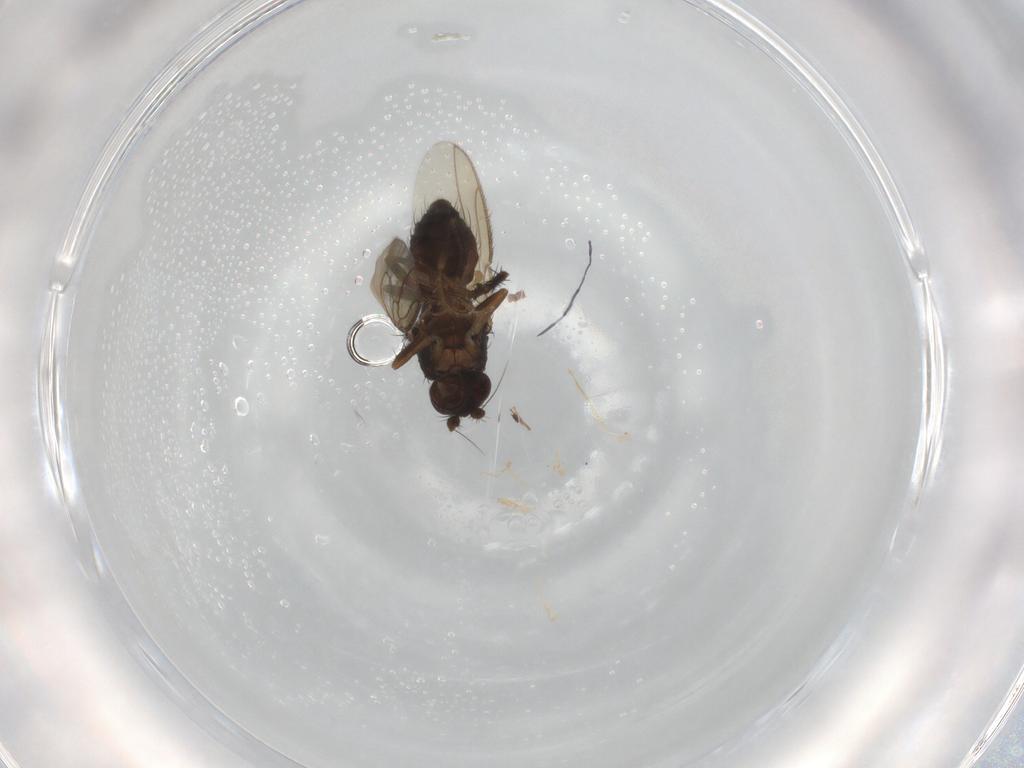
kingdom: Animalia
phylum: Arthropoda
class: Insecta
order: Diptera
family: Sphaeroceridae
